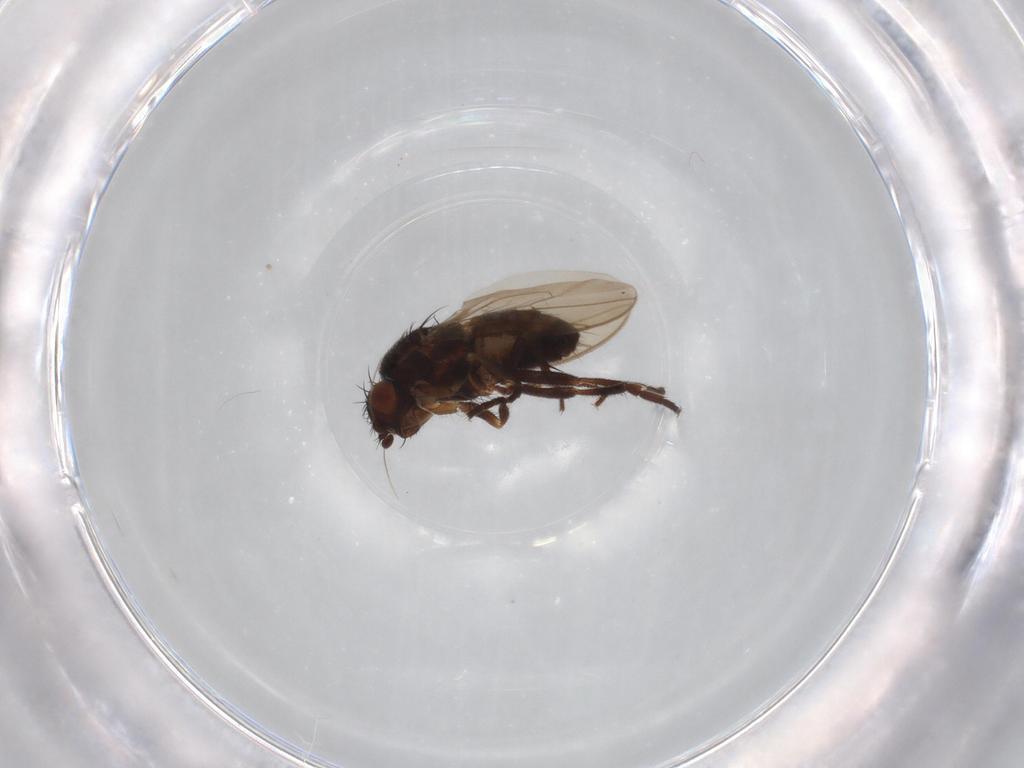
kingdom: Animalia
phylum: Arthropoda
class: Insecta
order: Diptera
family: Sphaeroceridae
